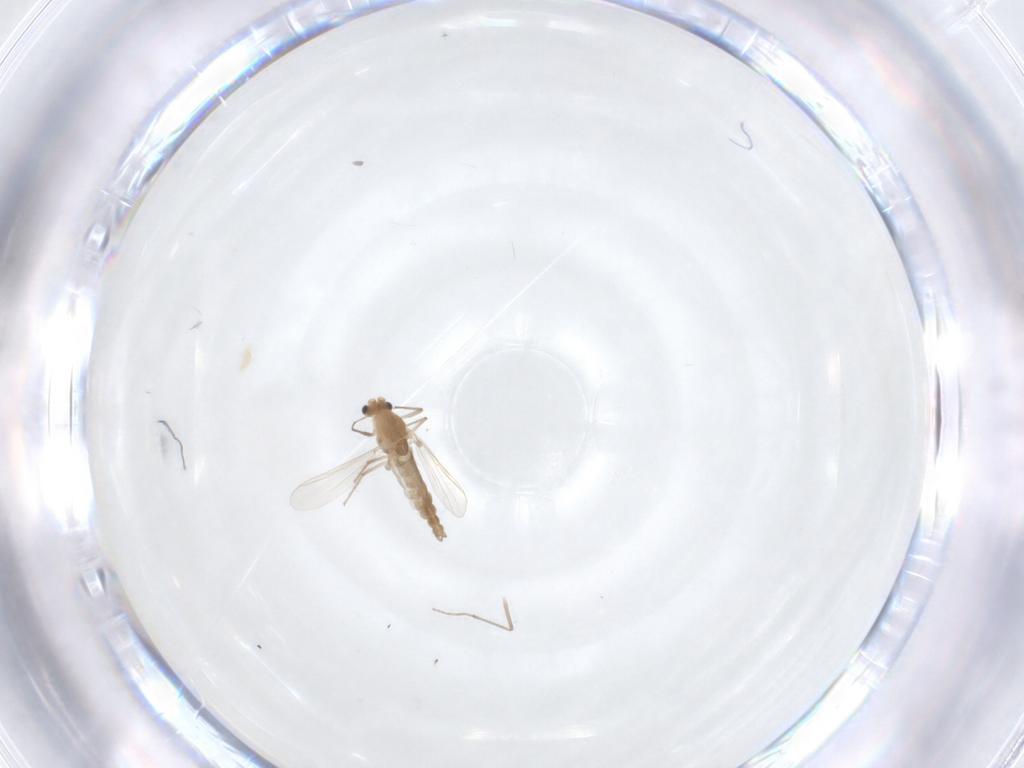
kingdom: Animalia
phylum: Arthropoda
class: Insecta
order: Diptera
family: Chironomidae
